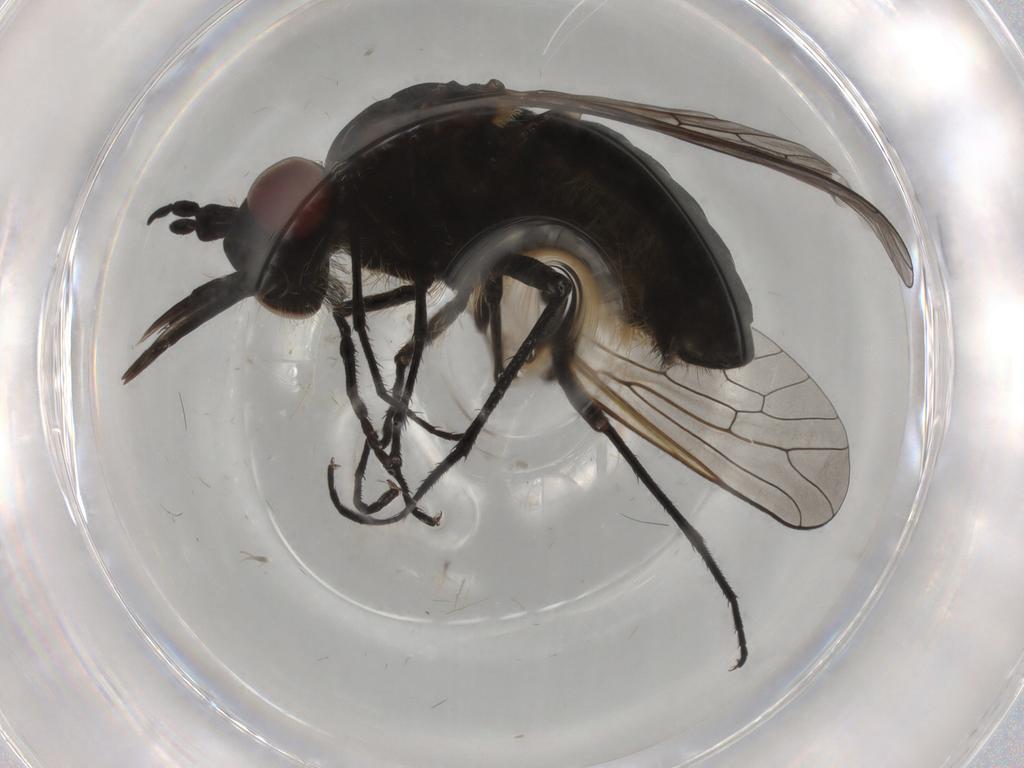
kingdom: Animalia
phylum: Arthropoda
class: Insecta
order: Diptera
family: Bombyliidae
